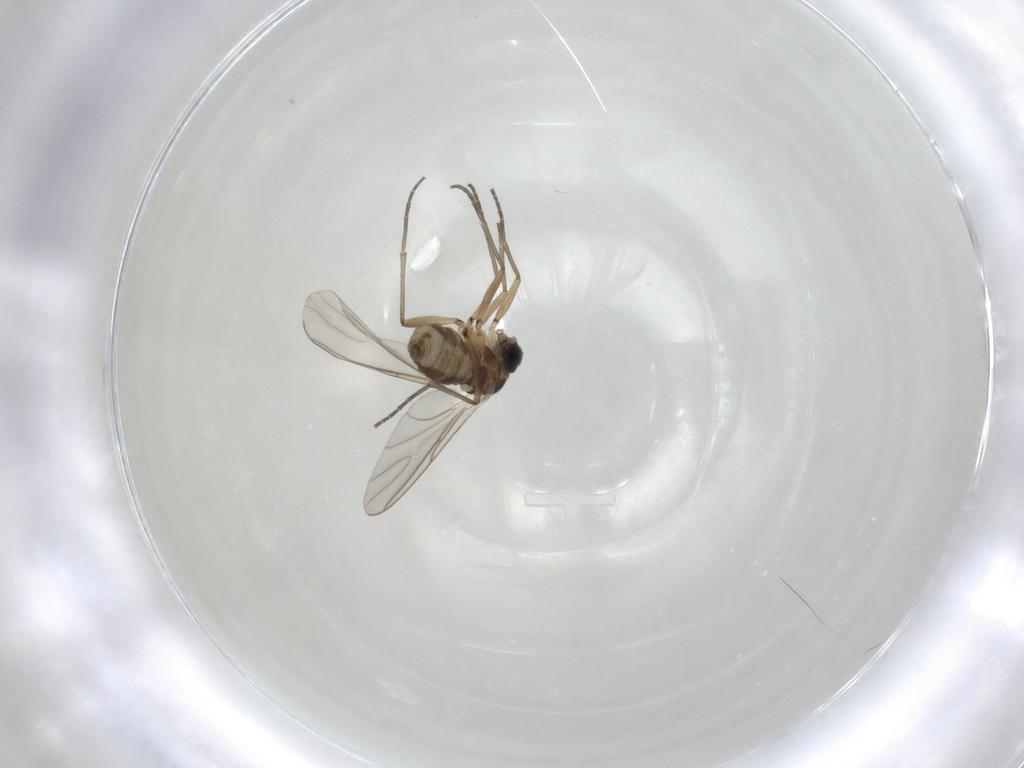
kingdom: Animalia
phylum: Arthropoda
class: Insecta
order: Diptera
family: Cecidomyiidae
